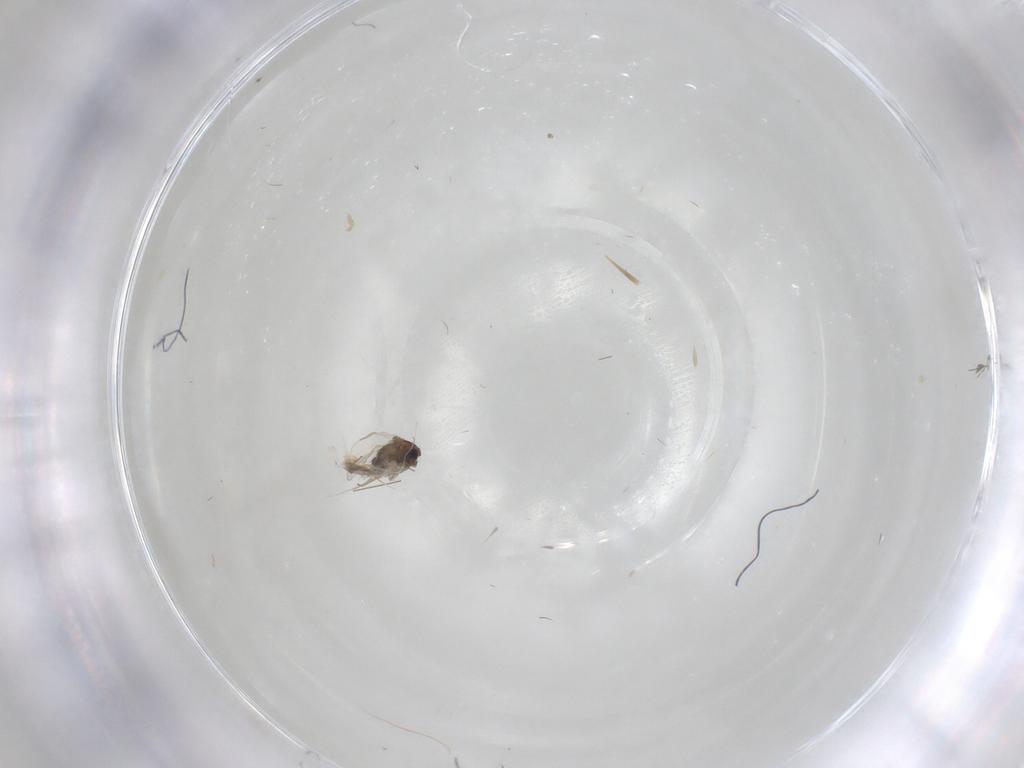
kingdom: Animalia
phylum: Arthropoda
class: Insecta
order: Diptera
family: Chironomidae
